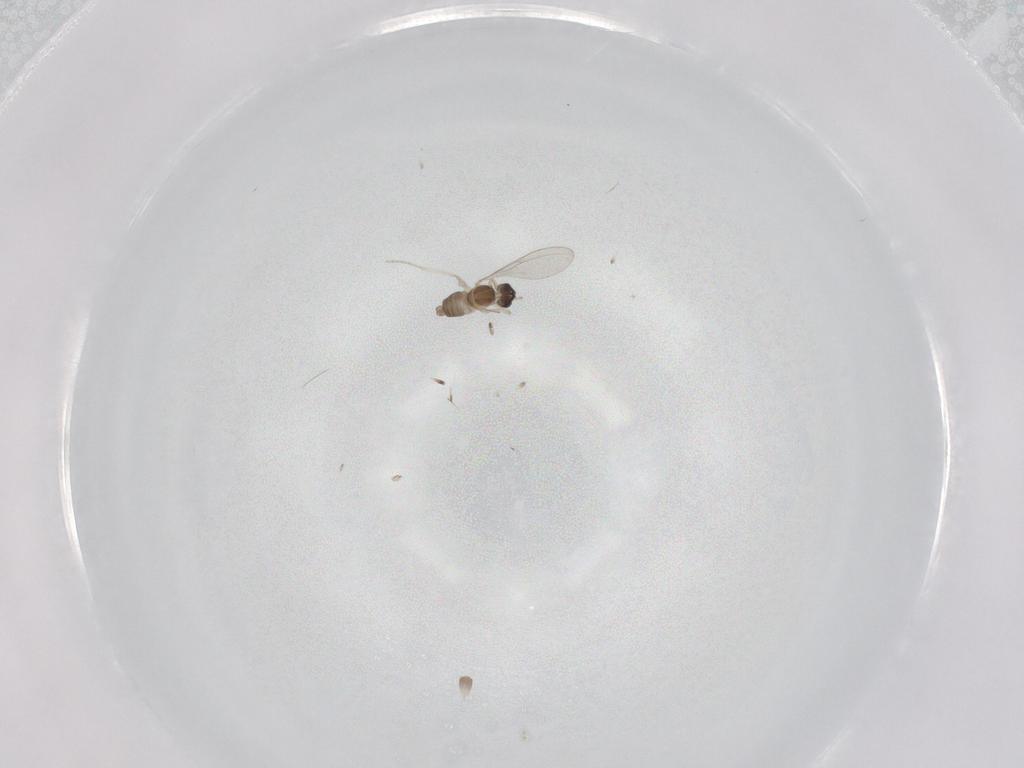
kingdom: Animalia
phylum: Arthropoda
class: Insecta
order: Diptera
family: Cecidomyiidae
